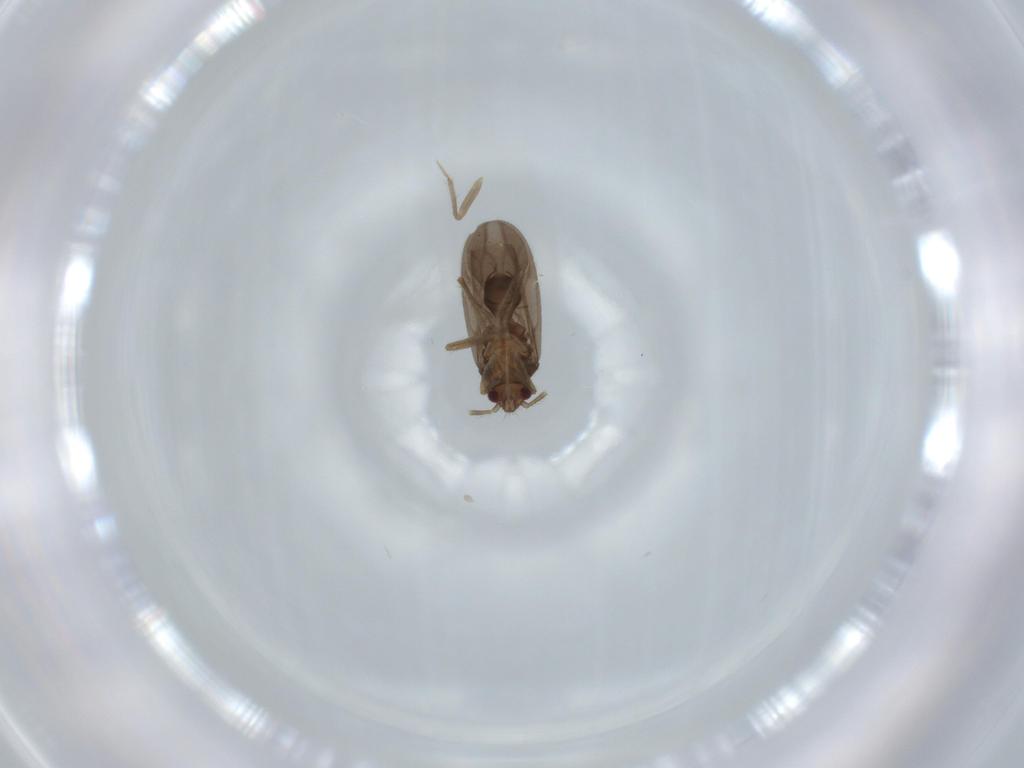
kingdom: Animalia
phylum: Arthropoda
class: Insecta
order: Hemiptera
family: Ceratocombidae
